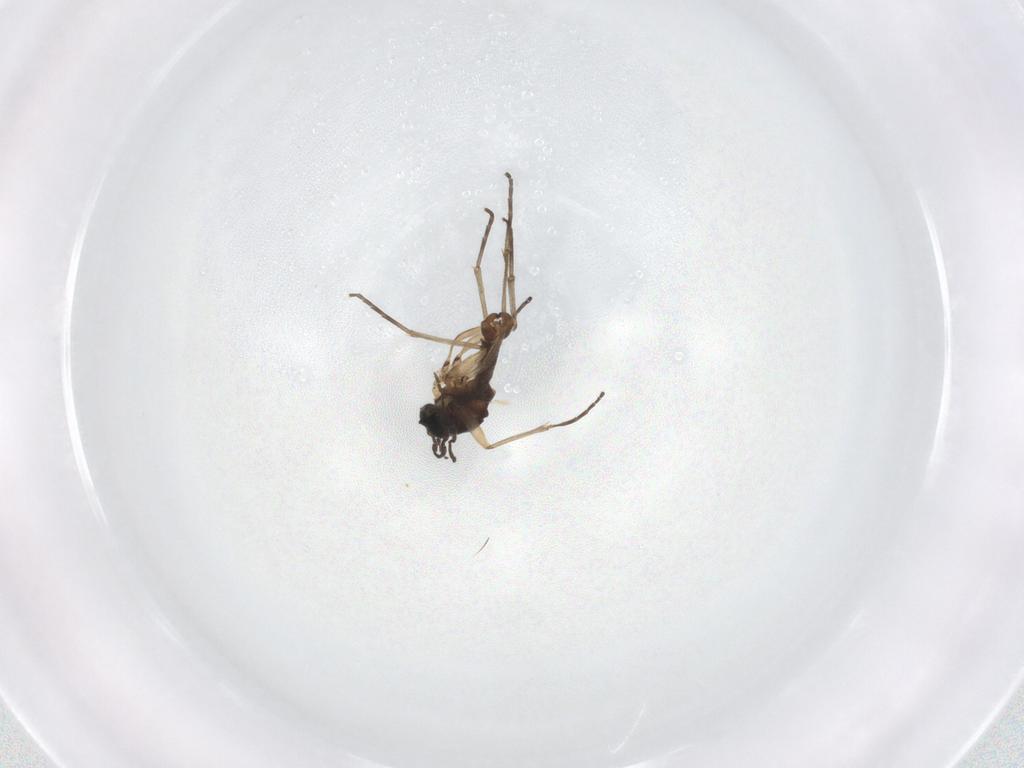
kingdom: Animalia
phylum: Arthropoda
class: Insecta
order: Diptera
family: Sciaridae
